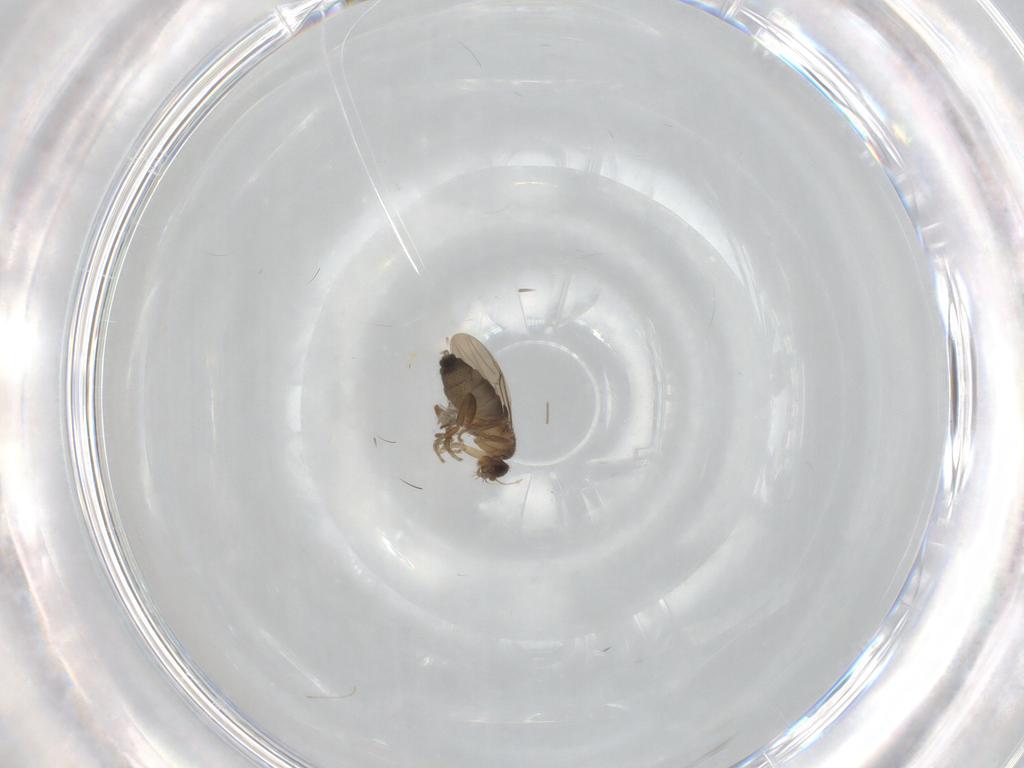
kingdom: Animalia
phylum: Arthropoda
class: Insecta
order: Diptera
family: Phoridae
